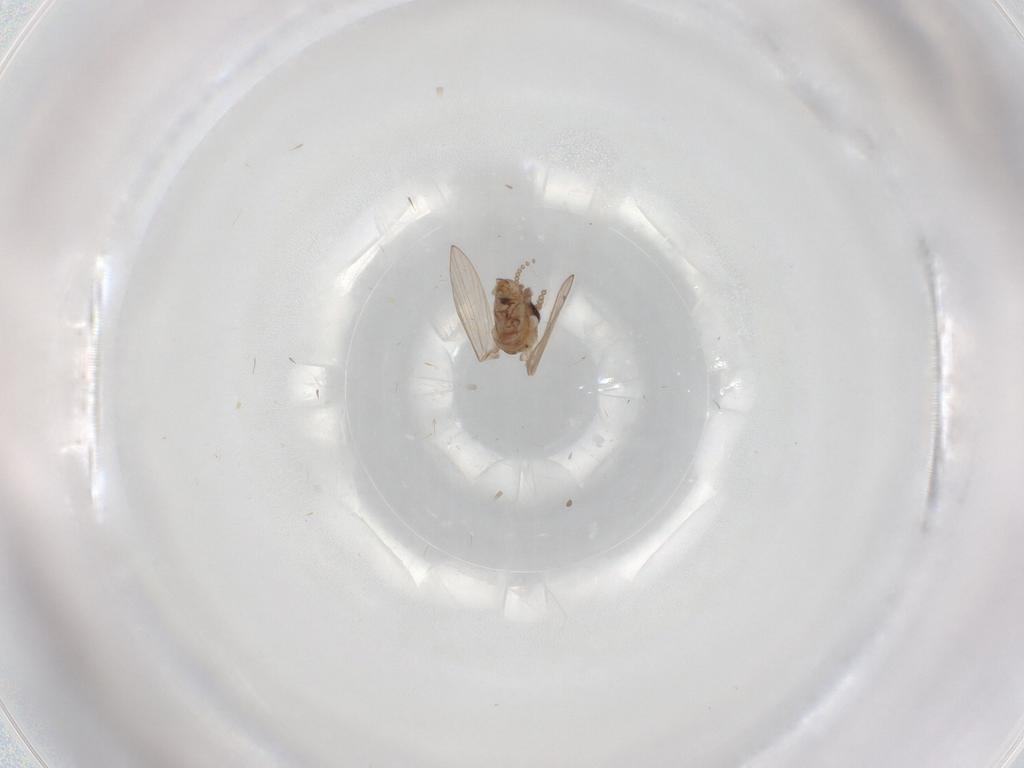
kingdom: Animalia
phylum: Arthropoda
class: Insecta
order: Diptera
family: Psychodidae
